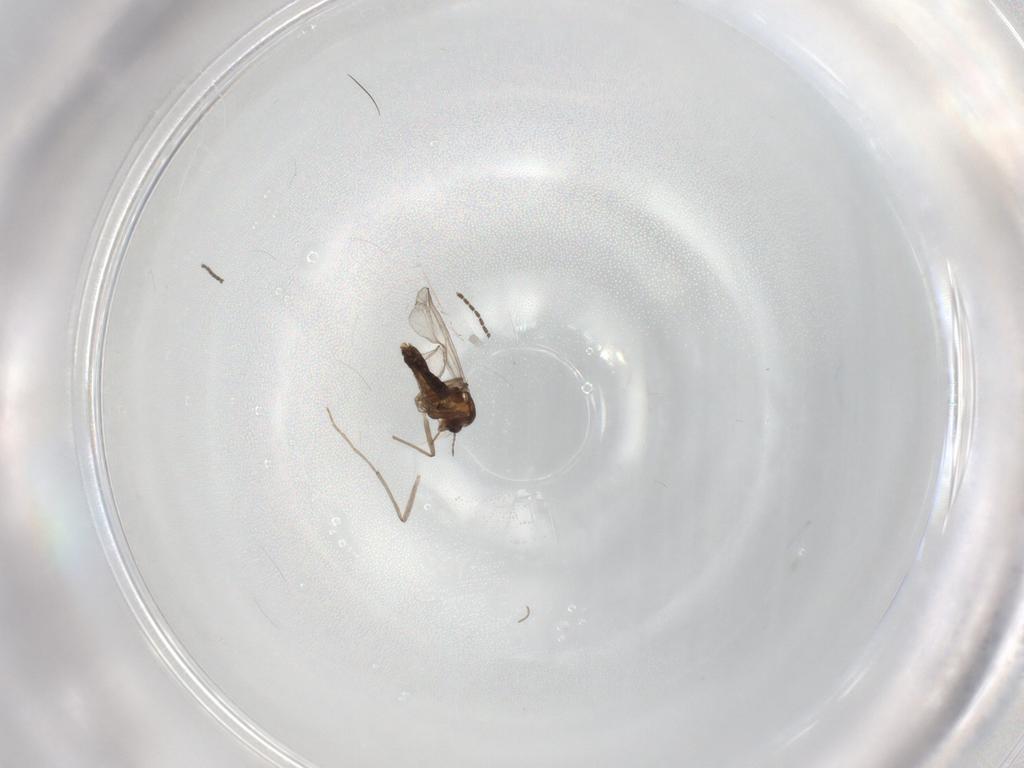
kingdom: Animalia
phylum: Arthropoda
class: Insecta
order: Diptera
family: Chironomidae
